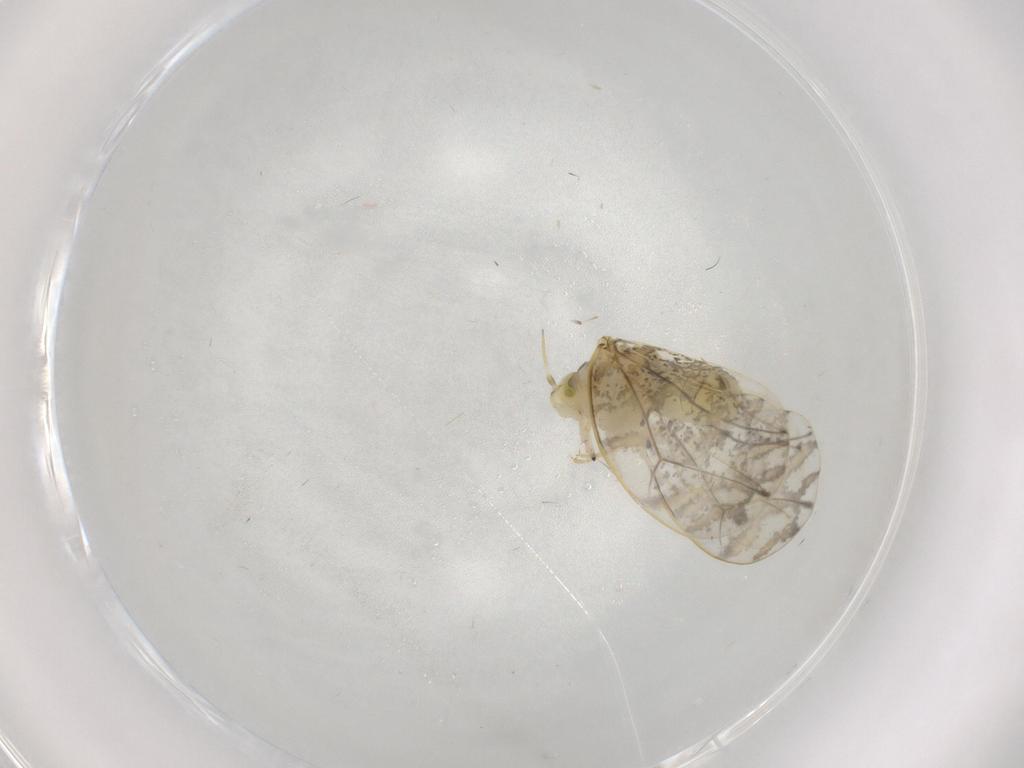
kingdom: Animalia
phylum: Arthropoda
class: Insecta
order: Hemiptera
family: Aleyrodidae
